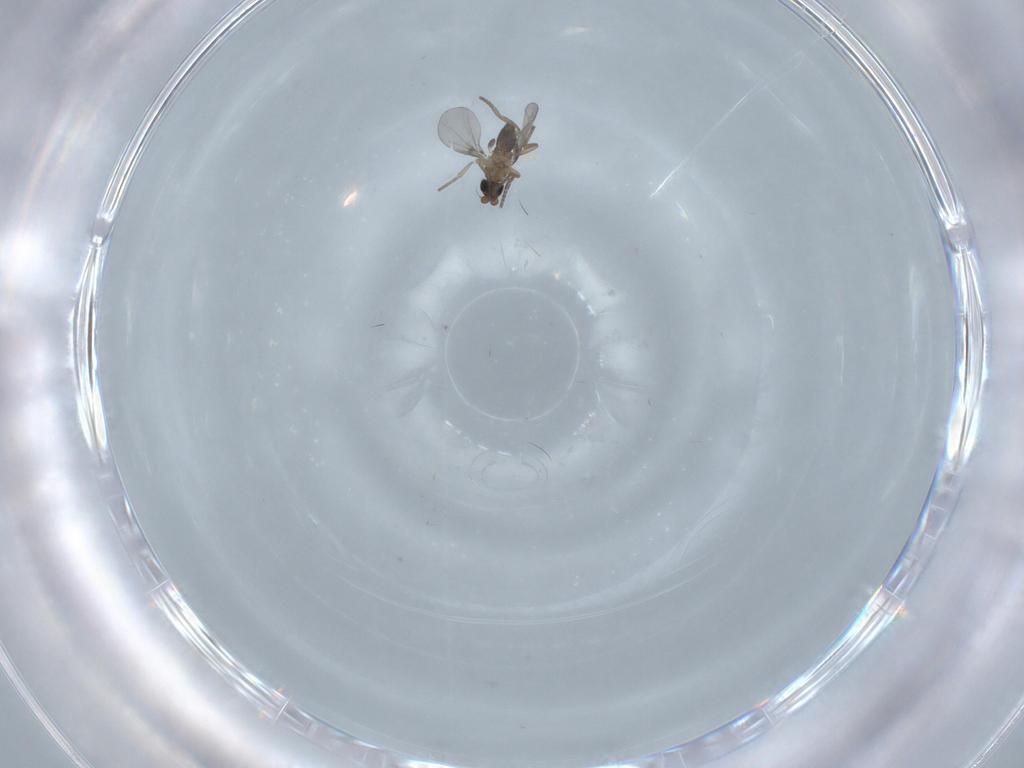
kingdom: Animalia
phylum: Arthropoda
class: Insecta
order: Diptera
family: Phoridae
